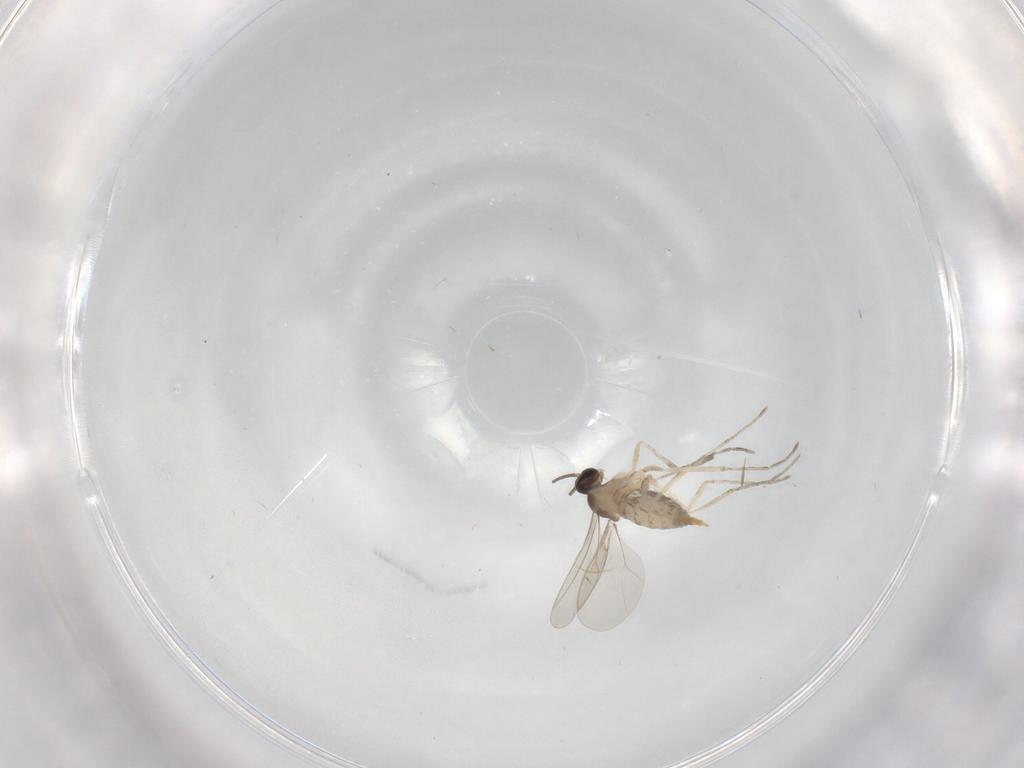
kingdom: Animalia
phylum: Arthropoda
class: Insecta
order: Diptera
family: Cecidomyiidae
